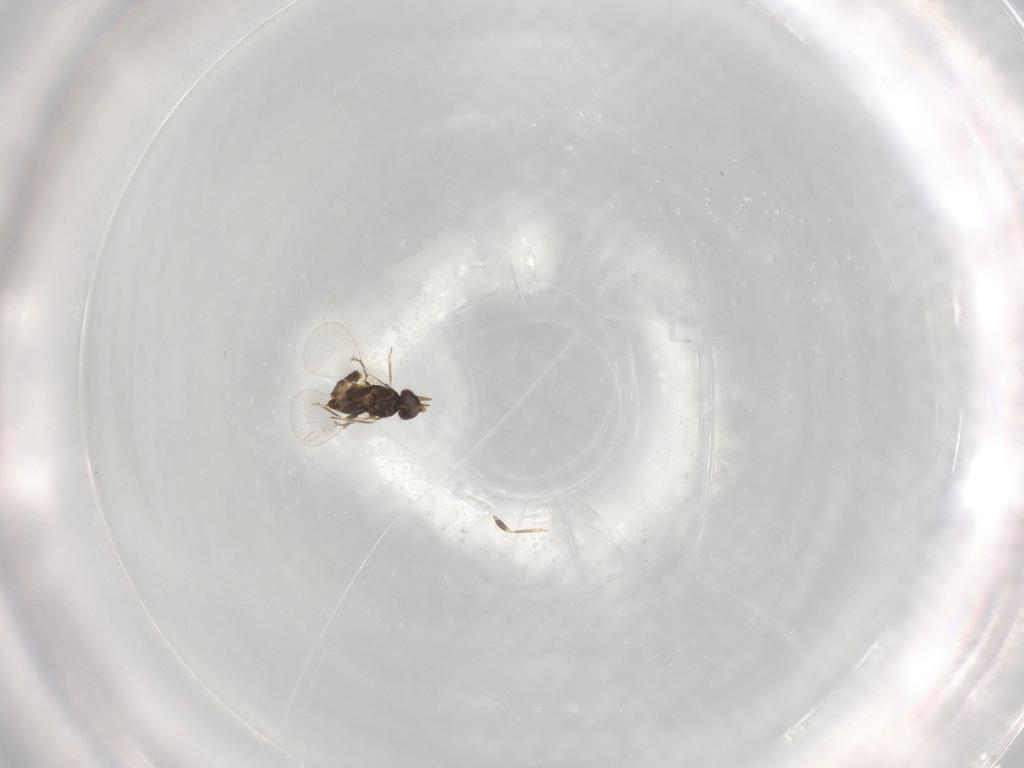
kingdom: Animalia
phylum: Arthropoda
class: Insecta
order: Hymenoptera
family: Trichogrammatidae
